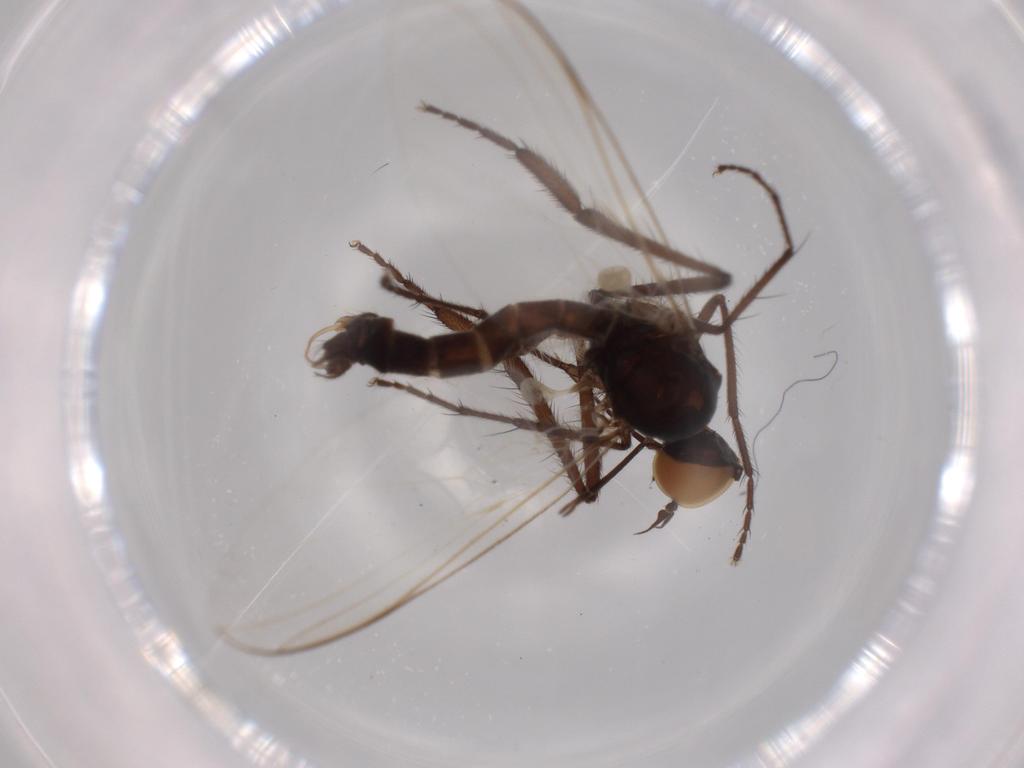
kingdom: Animalia
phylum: Arthropoda
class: Insecta
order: Diptera
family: Empididae
